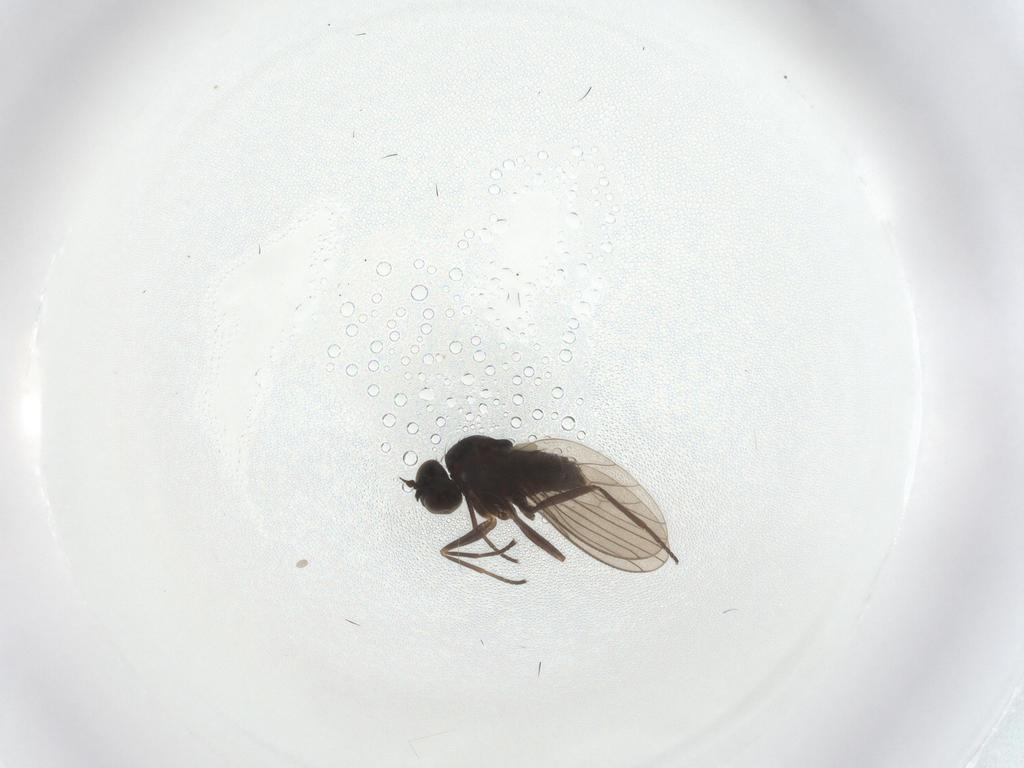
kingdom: Animalia
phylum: Arthropoda
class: Insecta
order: Diptera
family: Dolichopodidae
